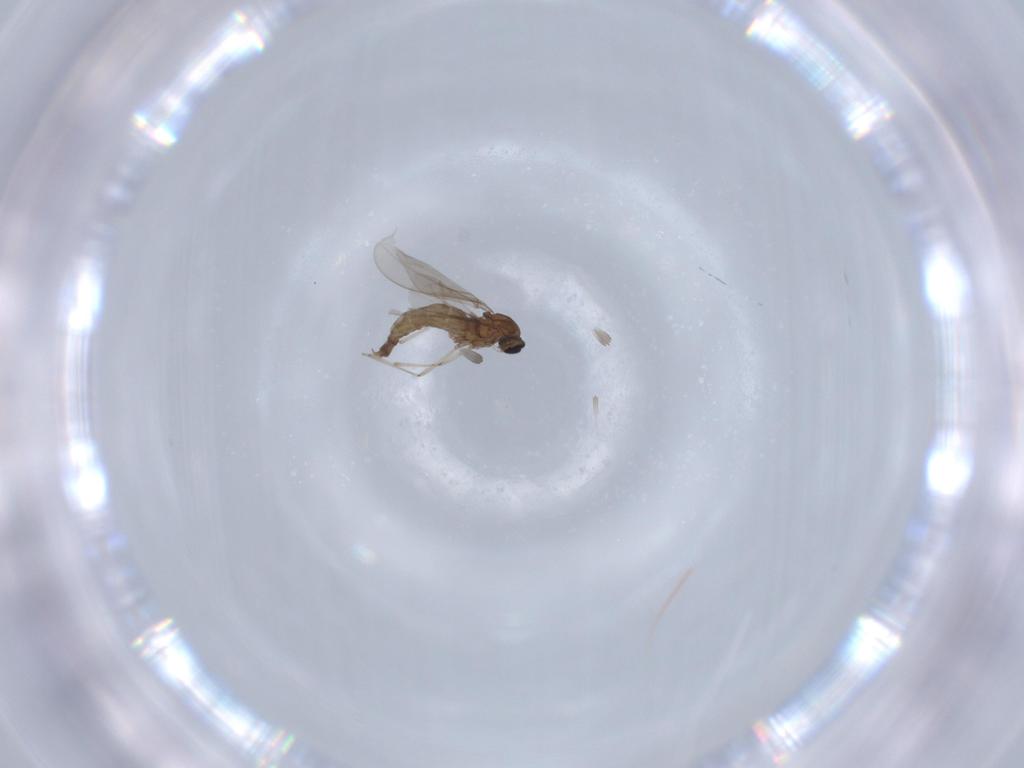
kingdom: Animalia
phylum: Arthropoda
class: Insecta
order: Diptera
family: Cecidomyiidae
